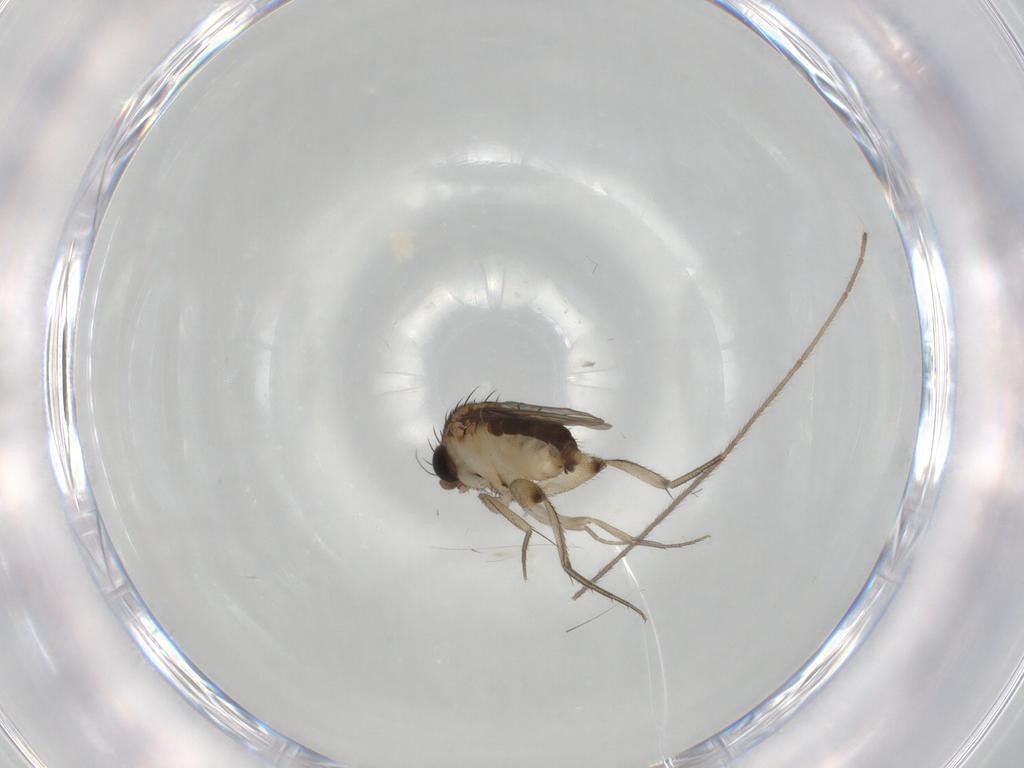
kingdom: Animalia
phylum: Arthropoda
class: Insecta
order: Diptera
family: Phoridae
